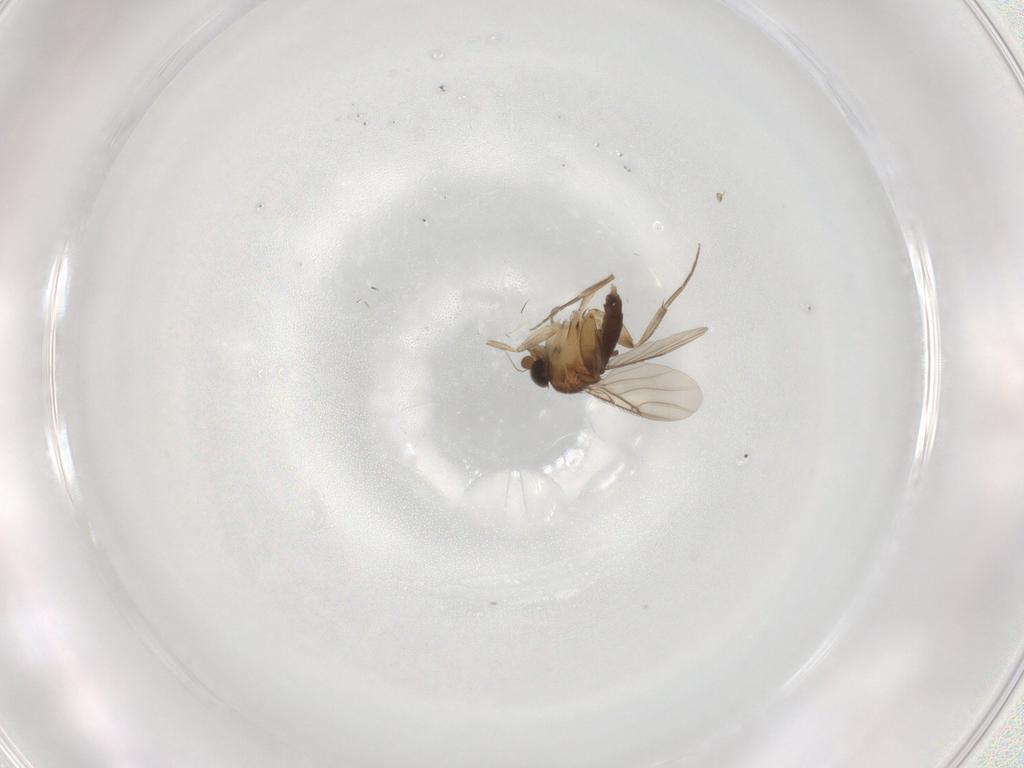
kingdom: Animalia
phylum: Arthropoda
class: Insecta
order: Diptera
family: Phoridae
